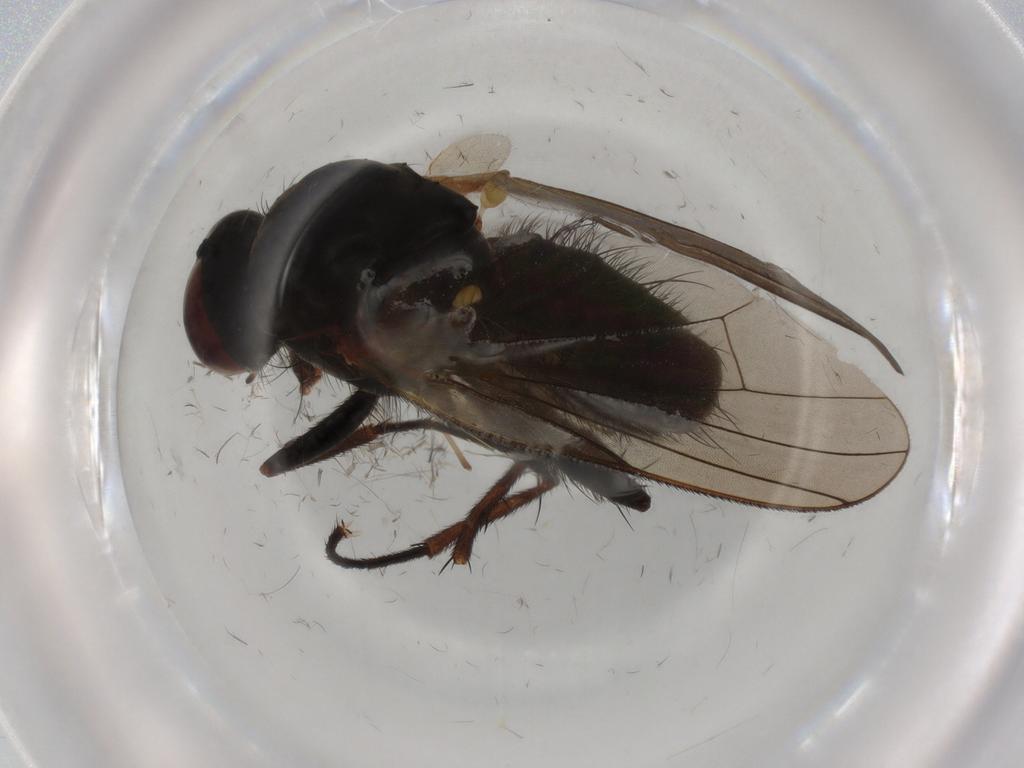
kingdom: Animalia
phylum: Arthropoda
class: Insecta
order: Diptera
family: Anthomyiidae
